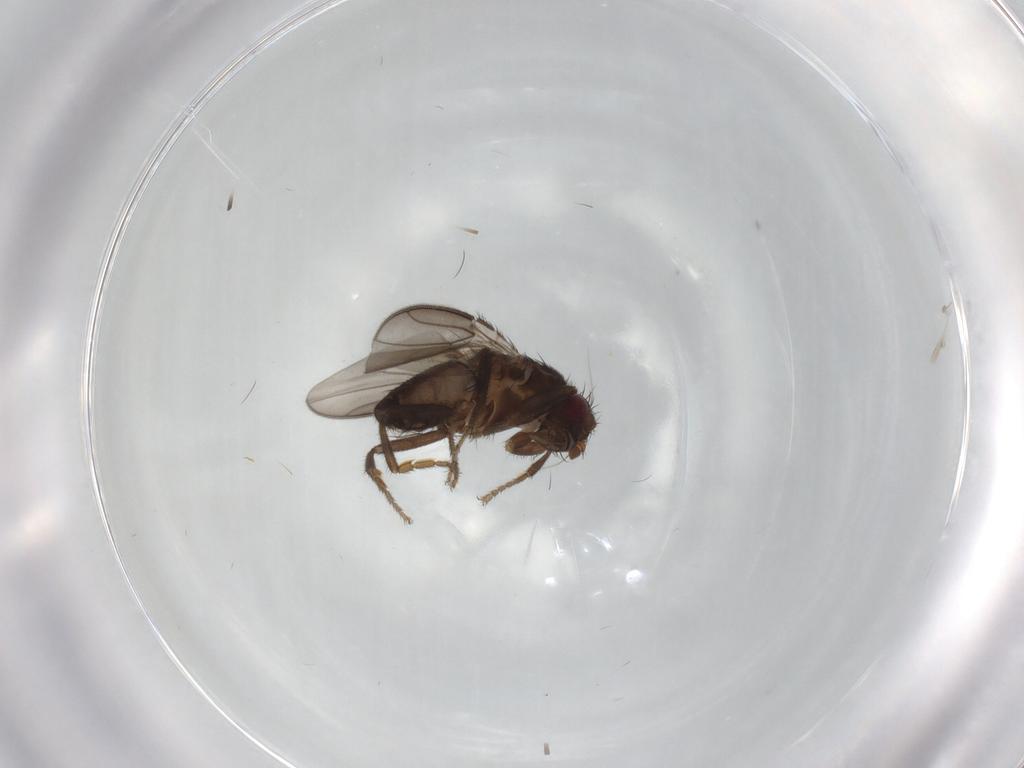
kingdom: Animalia
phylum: Arthropoda
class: Insecta
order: Diptera
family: Sphaeroceridae
